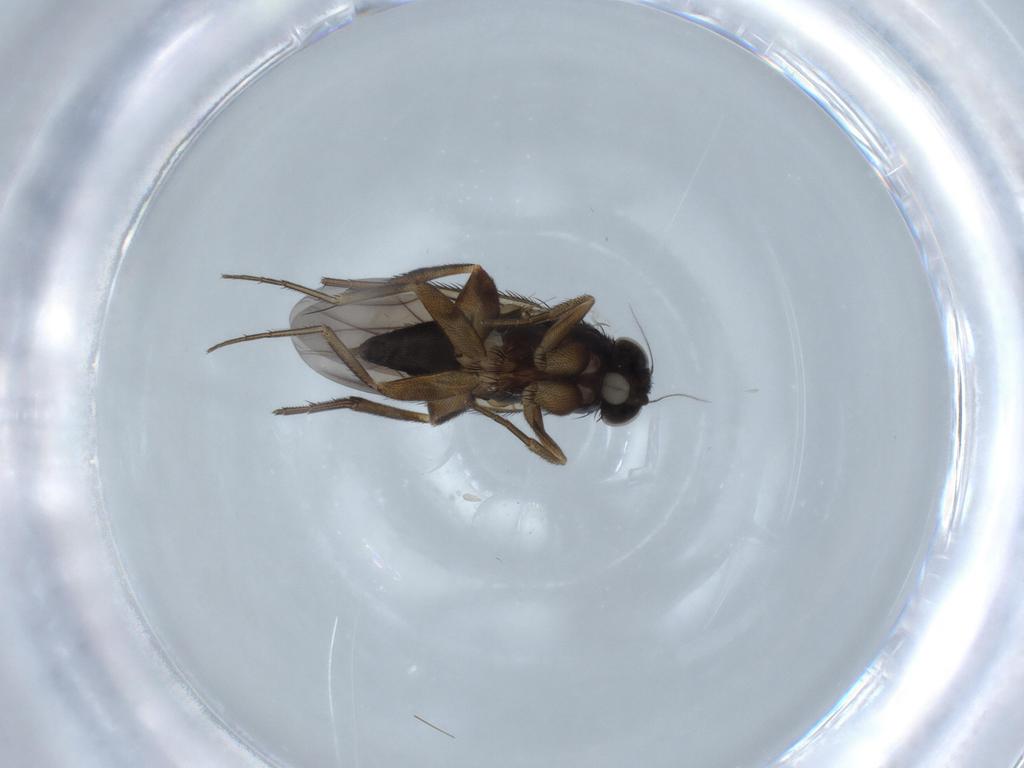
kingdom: Animalia
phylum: Arthropoda
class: Insecta
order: Diptera
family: Phoridae
